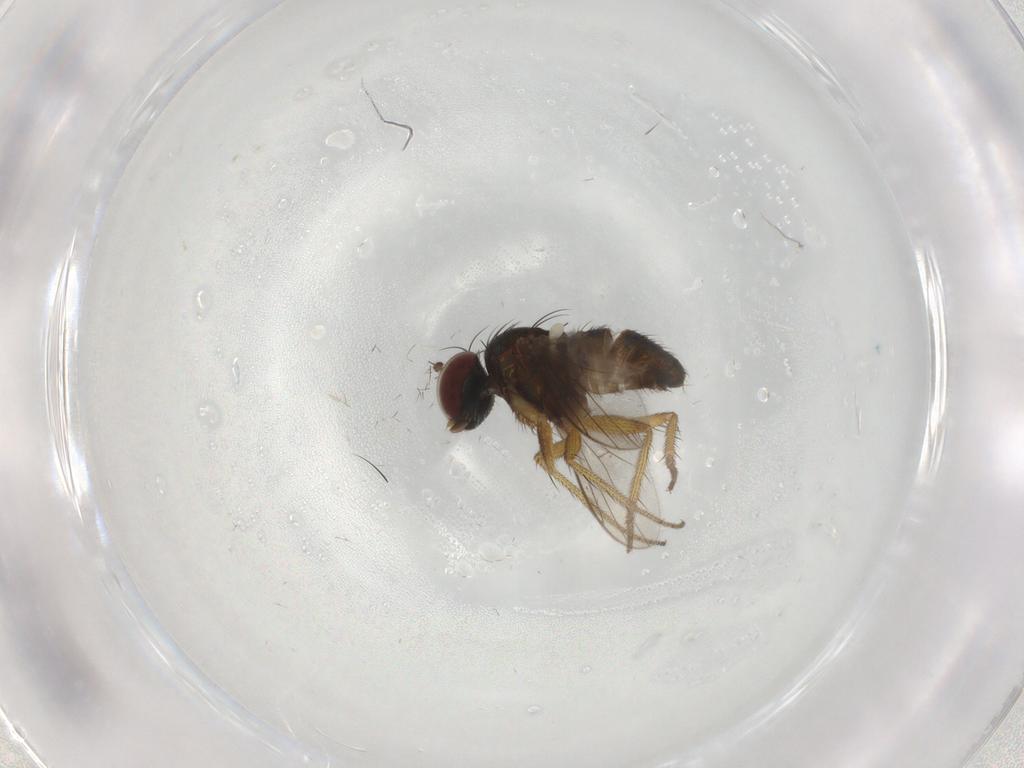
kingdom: Animalia
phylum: Arthropoda
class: Insecta
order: Diptera
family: Dolichopodidae
